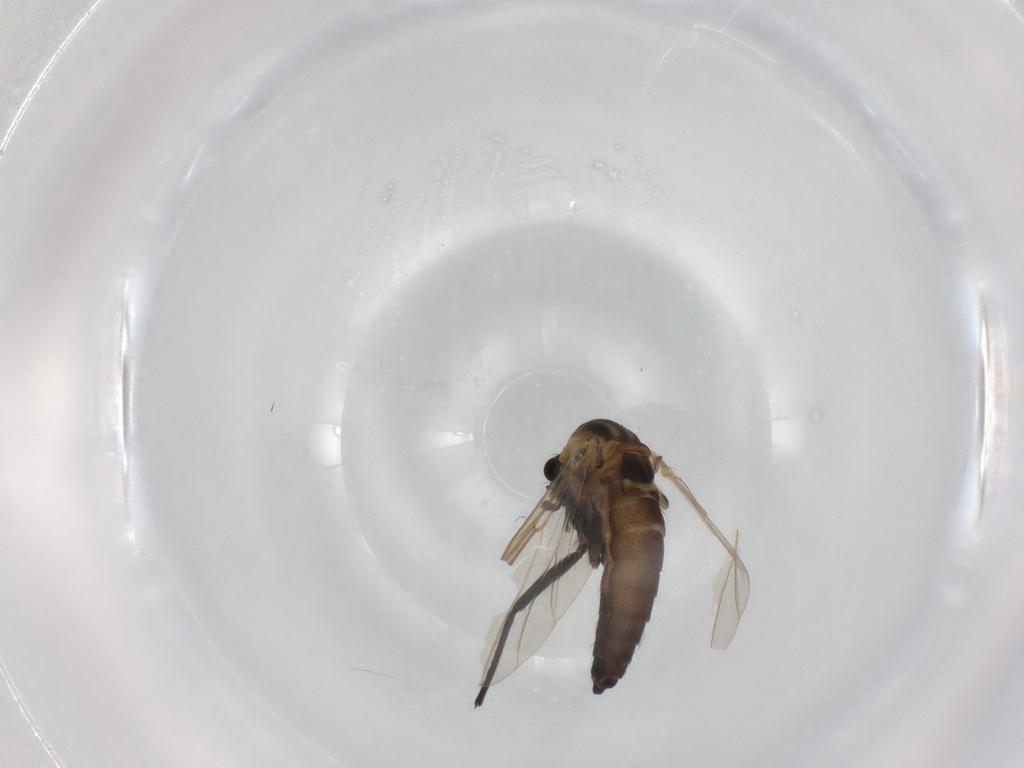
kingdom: Animalia
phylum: Arthropoda
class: Insecta
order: Diptera
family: Chironomidae
